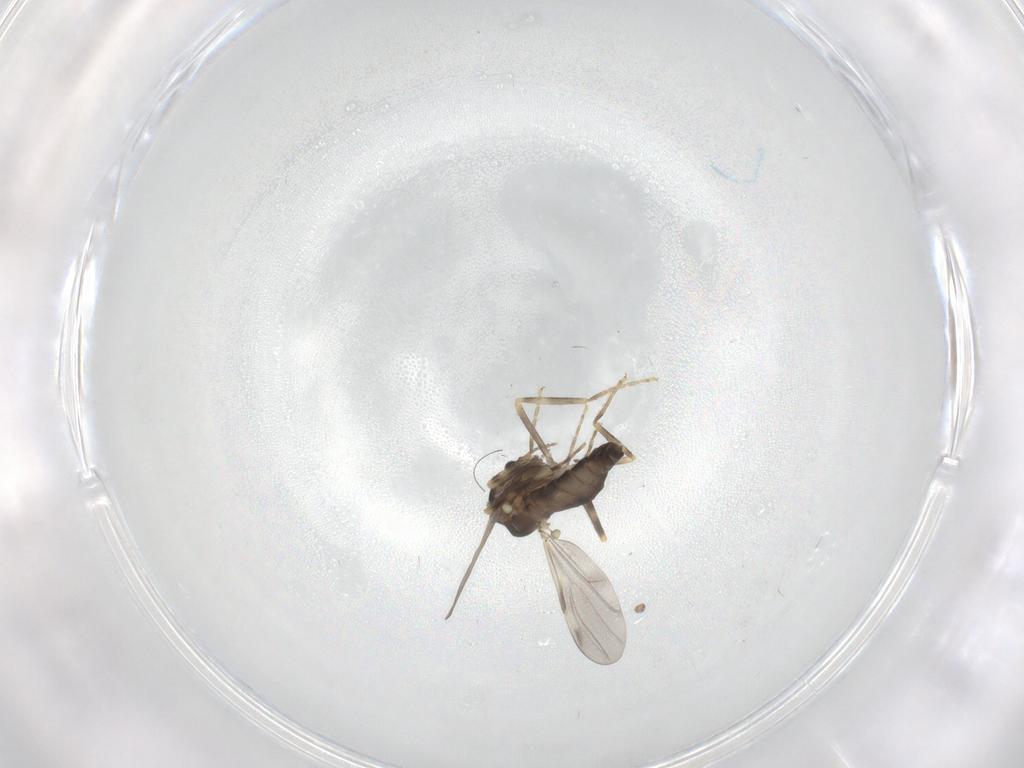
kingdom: Animalia
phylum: Arthropoda
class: Insecta
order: Diptera
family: Ceratopogonidae
